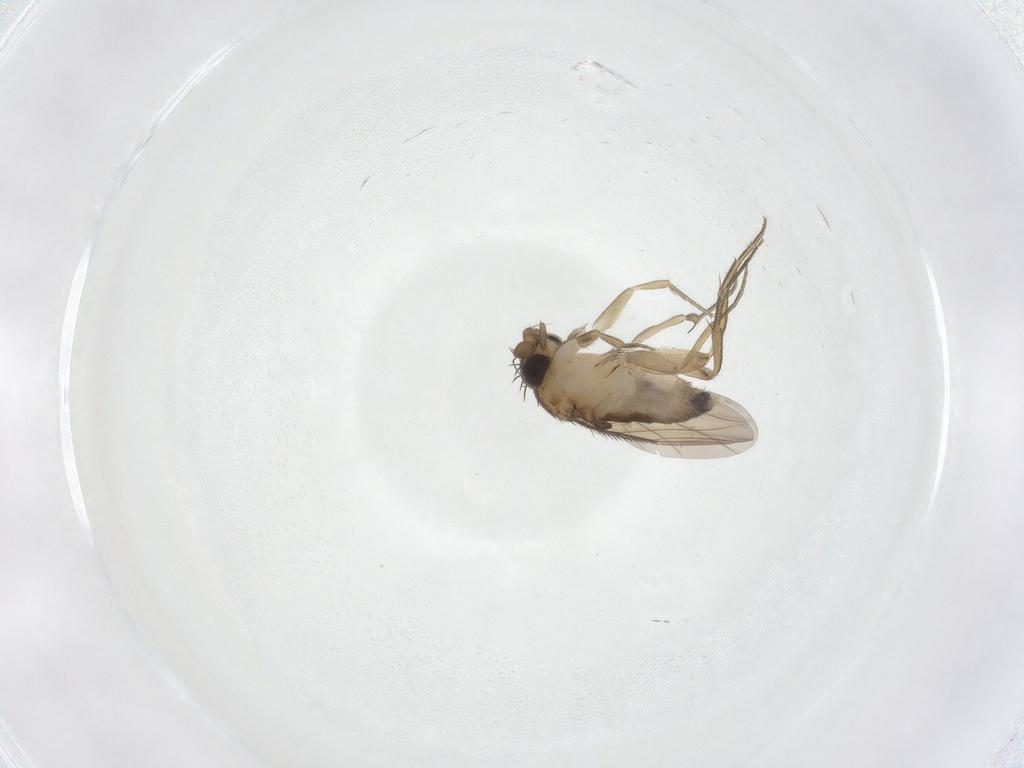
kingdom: Animalia
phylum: Arthropoda
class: Insecta
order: Diptera
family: Phoridae
